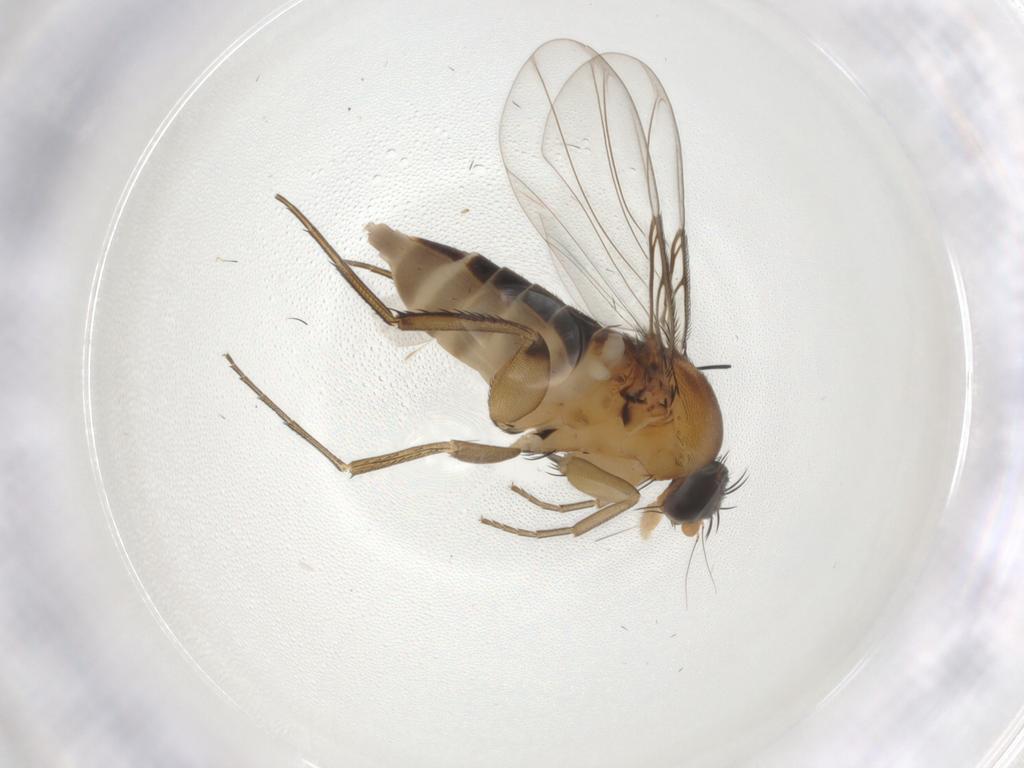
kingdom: Animalia
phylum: Arthropoda
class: Insecta
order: Diptera
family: Phoridae
